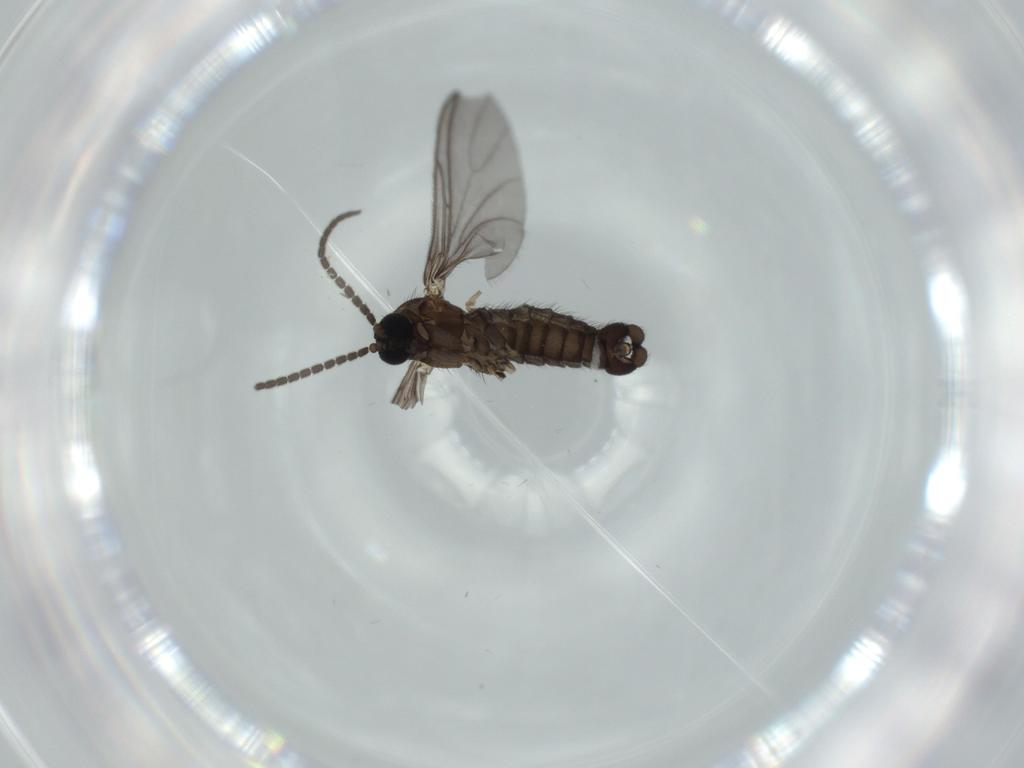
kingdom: Animalia
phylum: Arthropoda
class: Insecta
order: Diptera
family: Sciaridae
